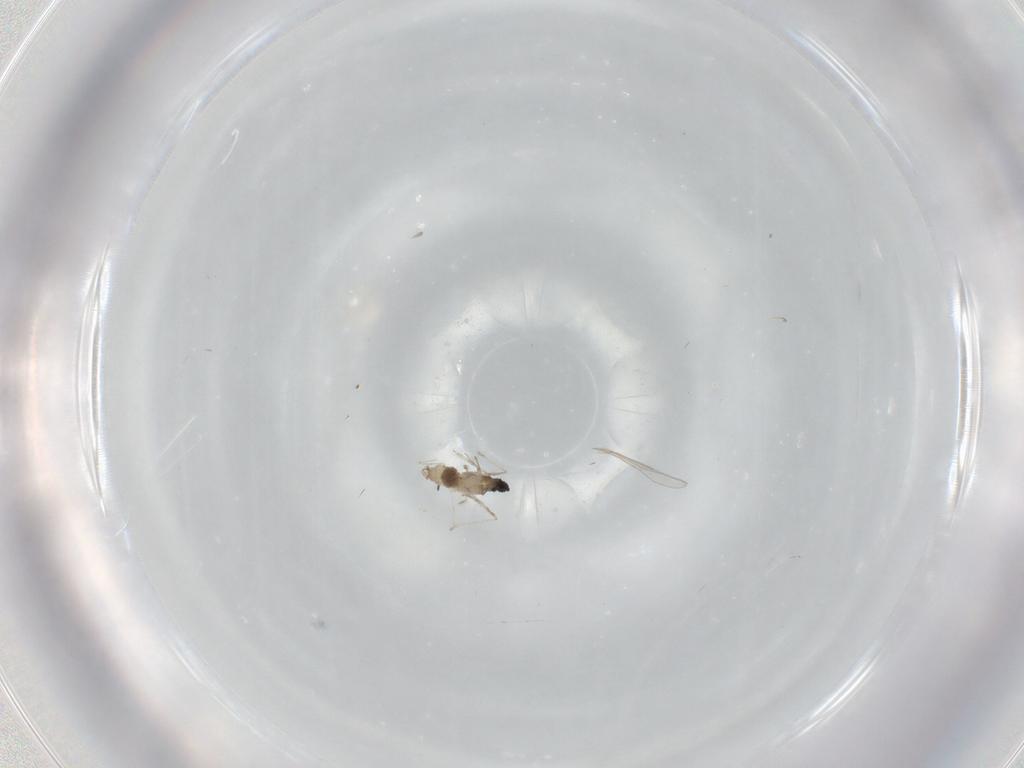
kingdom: Animalia
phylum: Arthropoda
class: Insecta
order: Diptera
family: Cecidomyiidae
